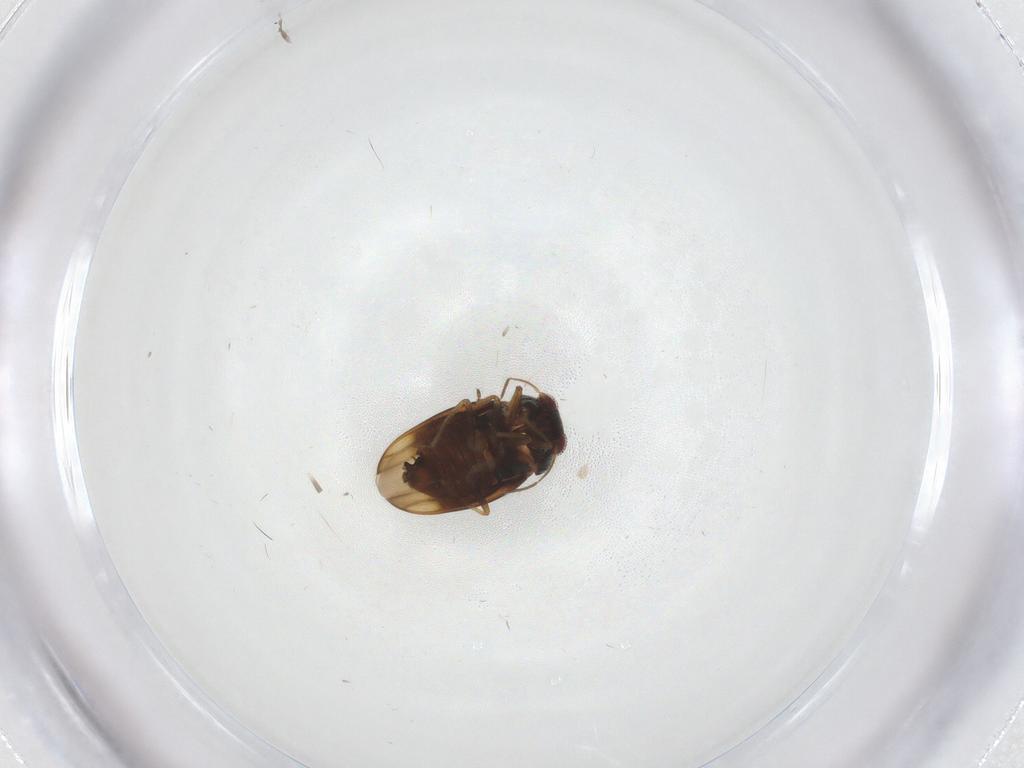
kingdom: Animalia
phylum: Arthropoda
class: Insecta
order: Hemiptera
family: Schizopteridae
